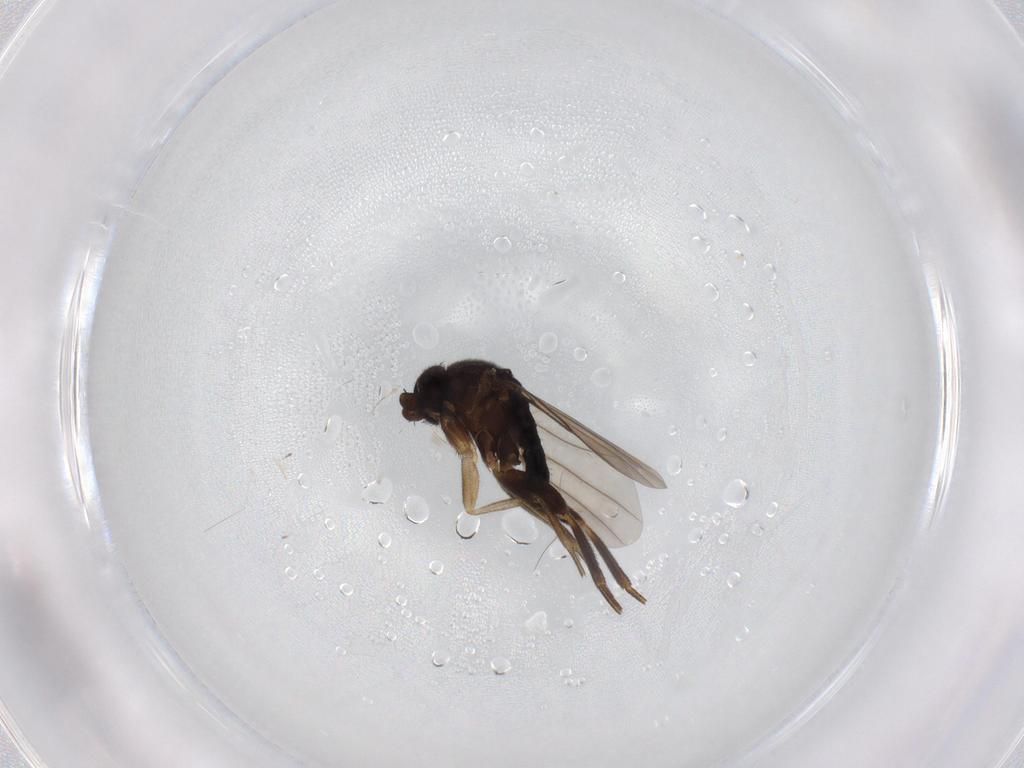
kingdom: Animalia
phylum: Arthropoda
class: Insecta
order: Diptera
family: Phoridae
